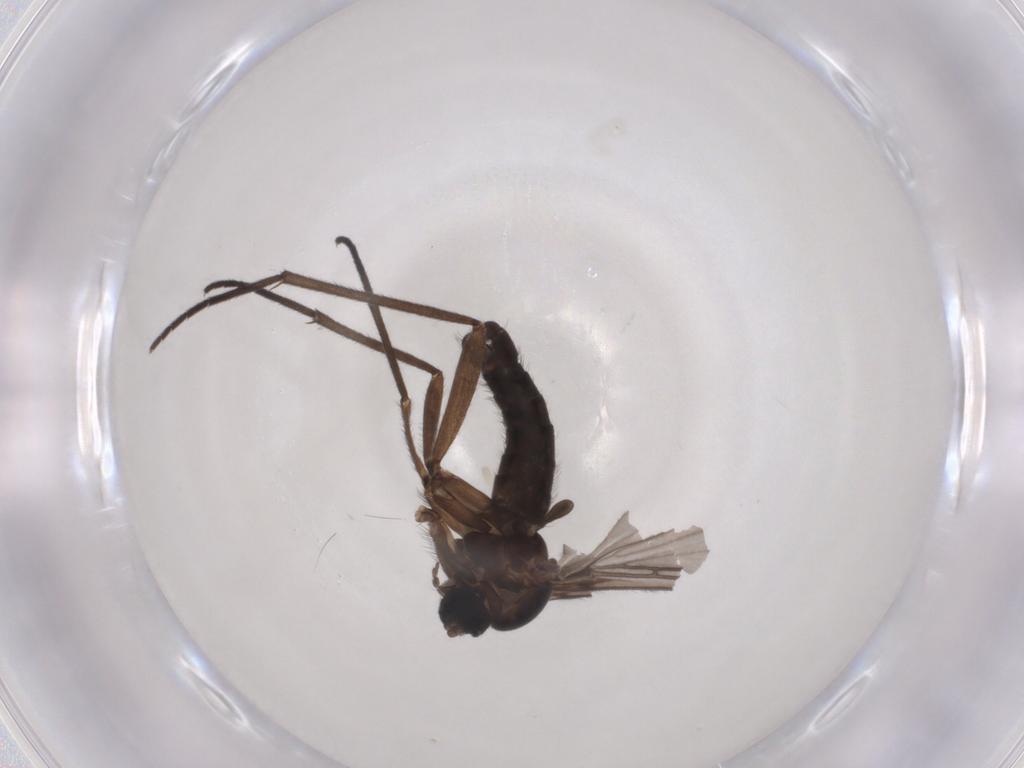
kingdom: Animalia
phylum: Arthropoda
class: Insecta
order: Diptera
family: Sciaridae
